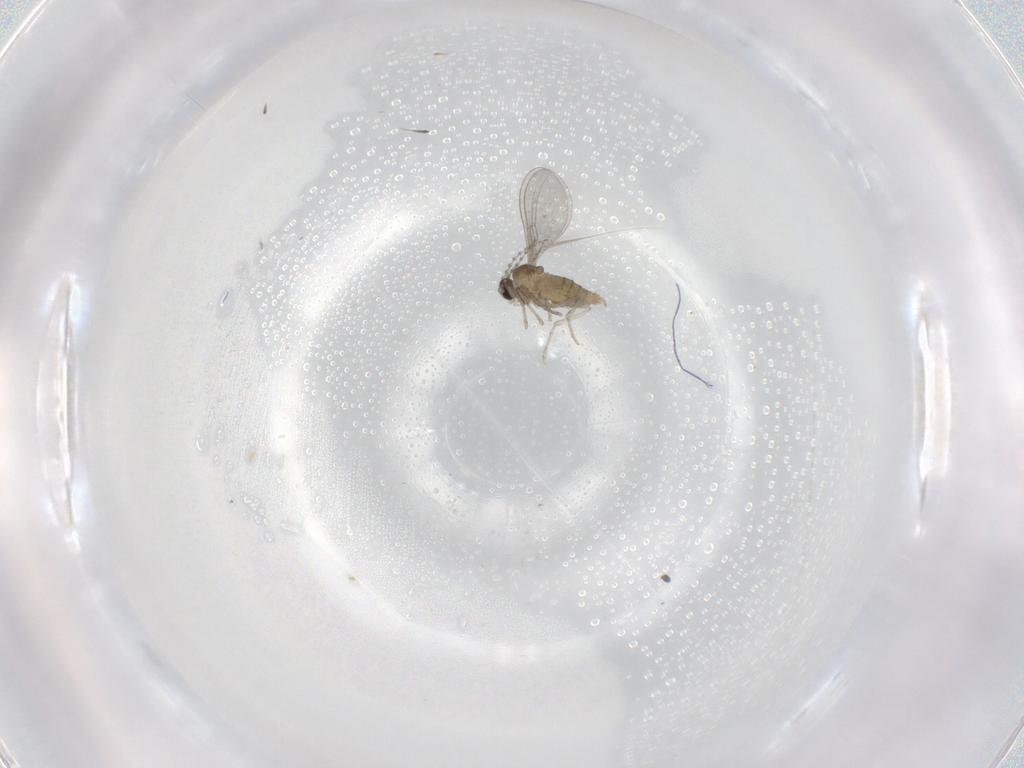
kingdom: Animalia
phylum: Arthropoda
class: Insecta
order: Diptera
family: Cecidomyiidae
